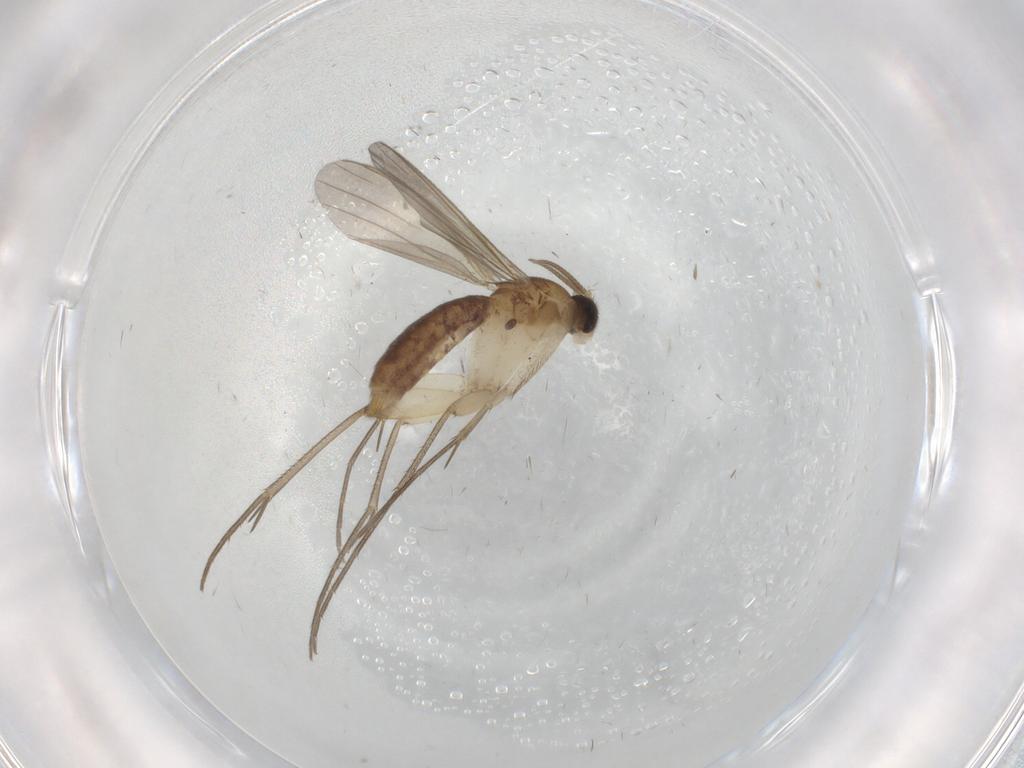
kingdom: Animalia
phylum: Arthropoda
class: Insecta
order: Diptera
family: Mycetophilidae
